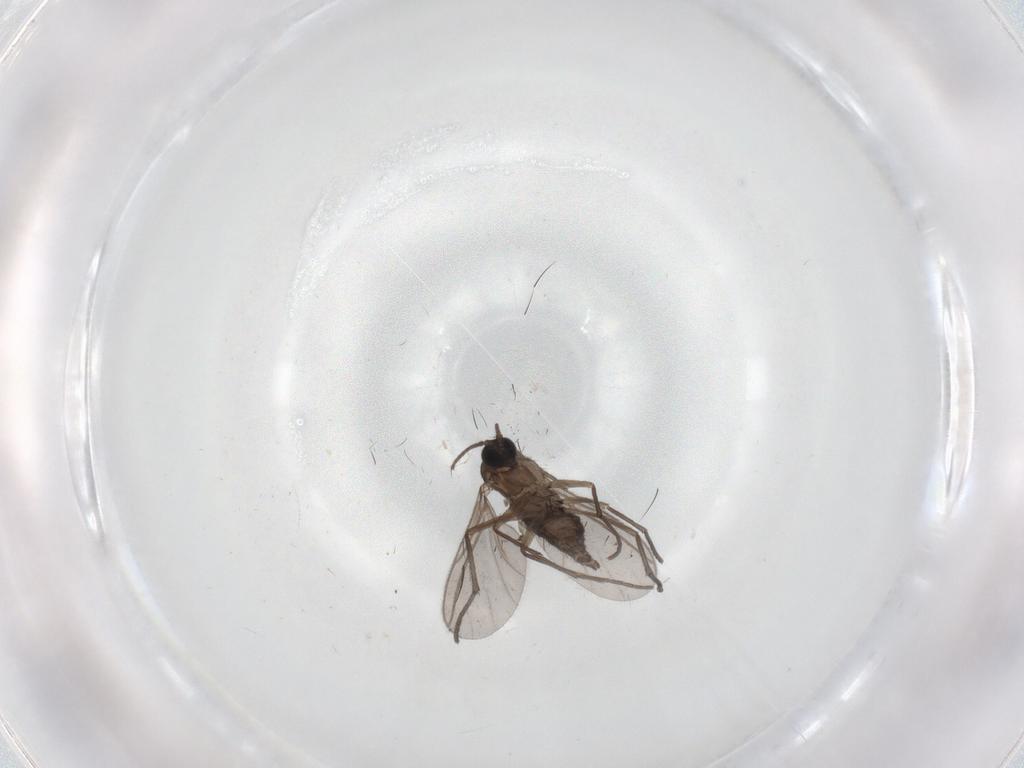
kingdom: Animalia
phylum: Arthropoda
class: Insecta
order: Diptera
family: Sciaridae
